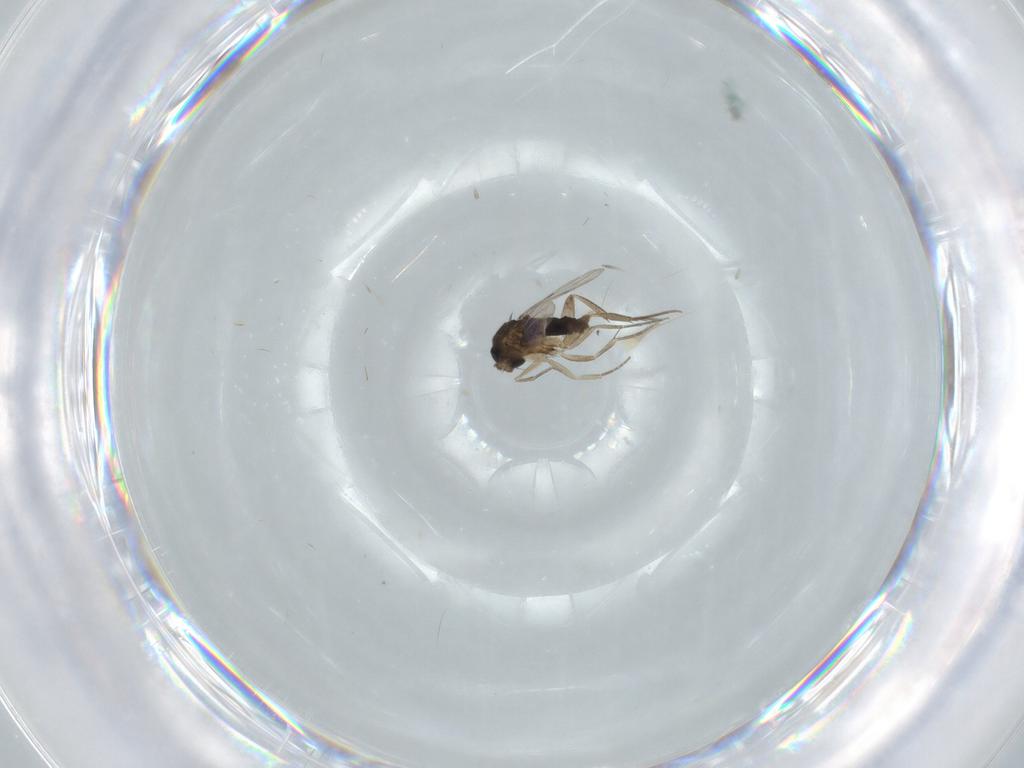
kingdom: Animalia
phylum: Arthropoda
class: Insecta
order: Diptera
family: Phoridae
